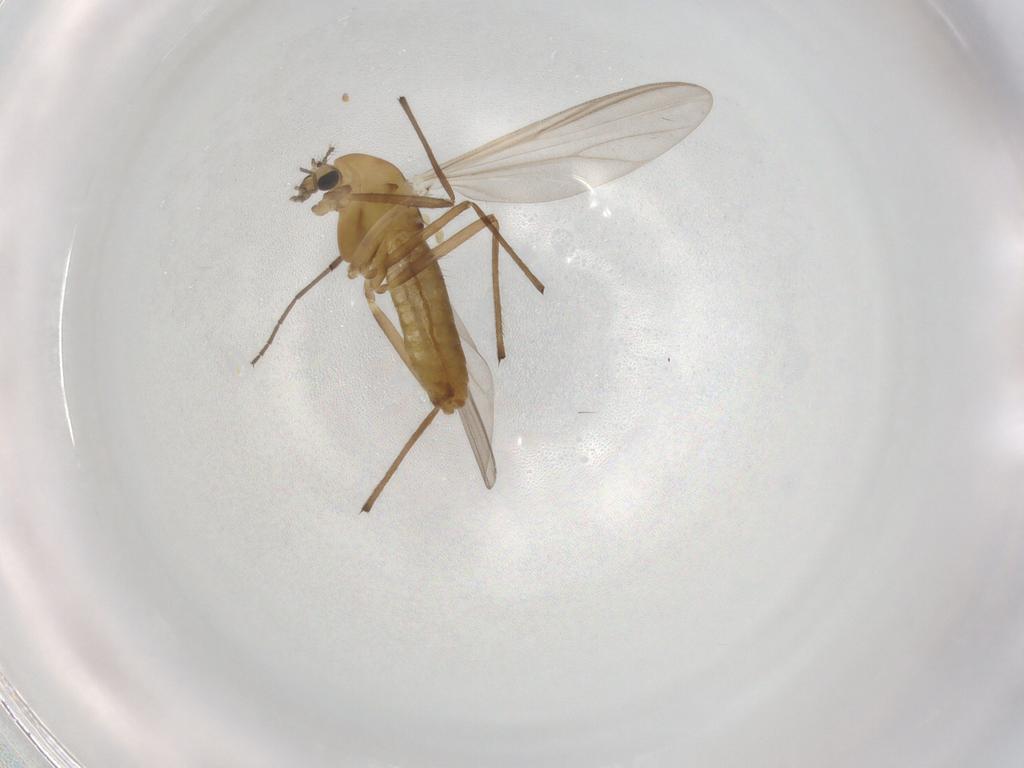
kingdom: Animalia
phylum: Arthropoda
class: Insecta
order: Diptera
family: Chironomidae
